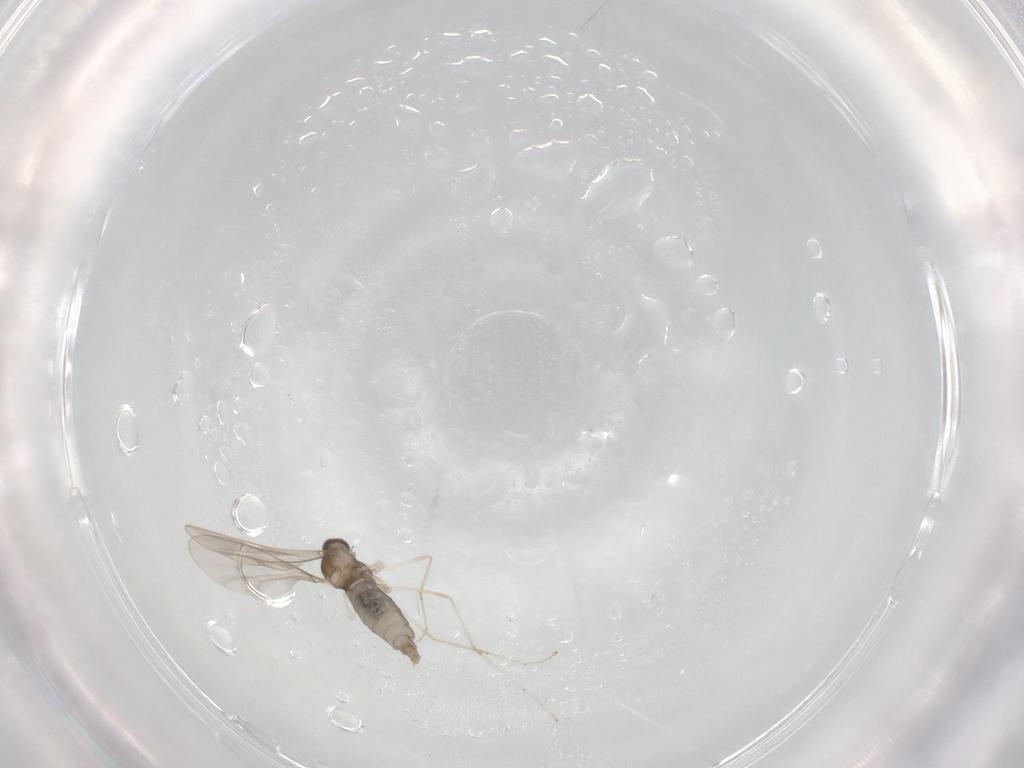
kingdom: Animalia
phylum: Arthropoda
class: Insecta
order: Diptera
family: Cecidomyiidae
